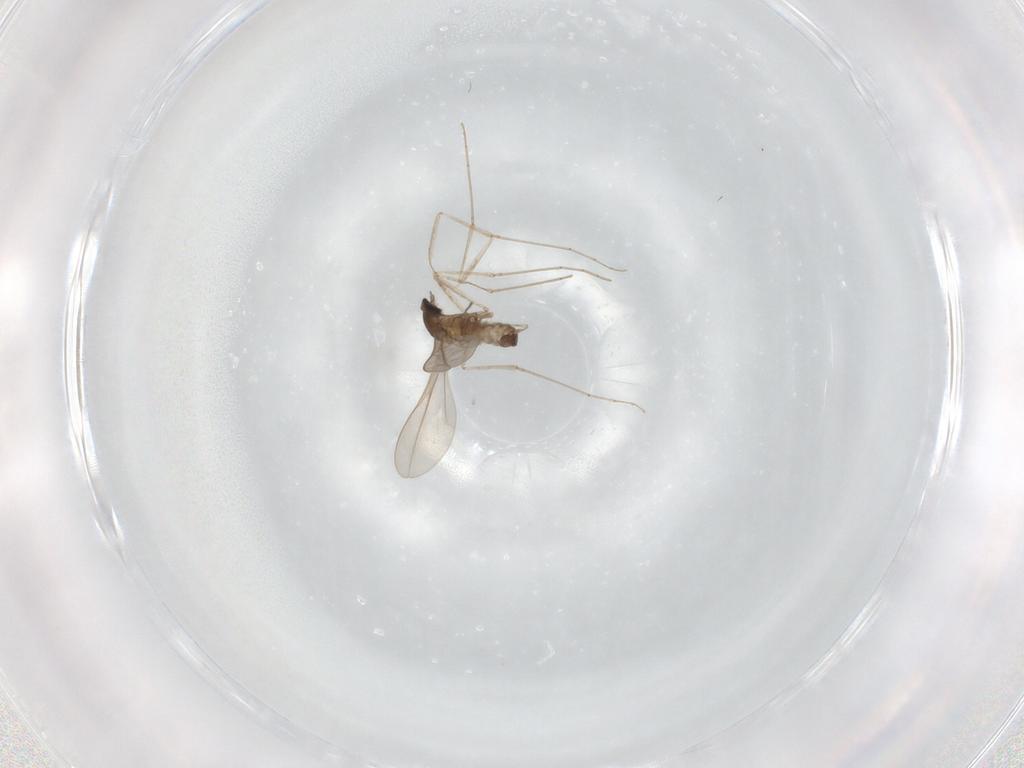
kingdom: Animalia
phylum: Arthropoda
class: Insecta
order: Diptera
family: Cecidomyiidae
